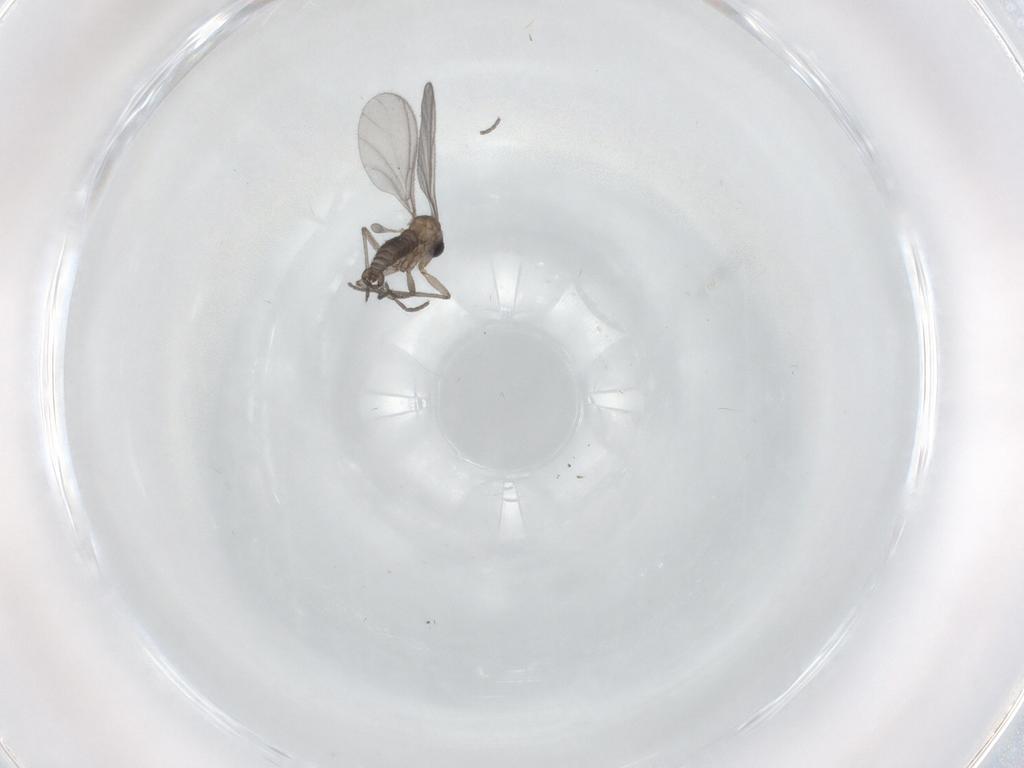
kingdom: Animalia
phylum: Arthropoda
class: Insecta
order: Diptera
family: Sciaridae
